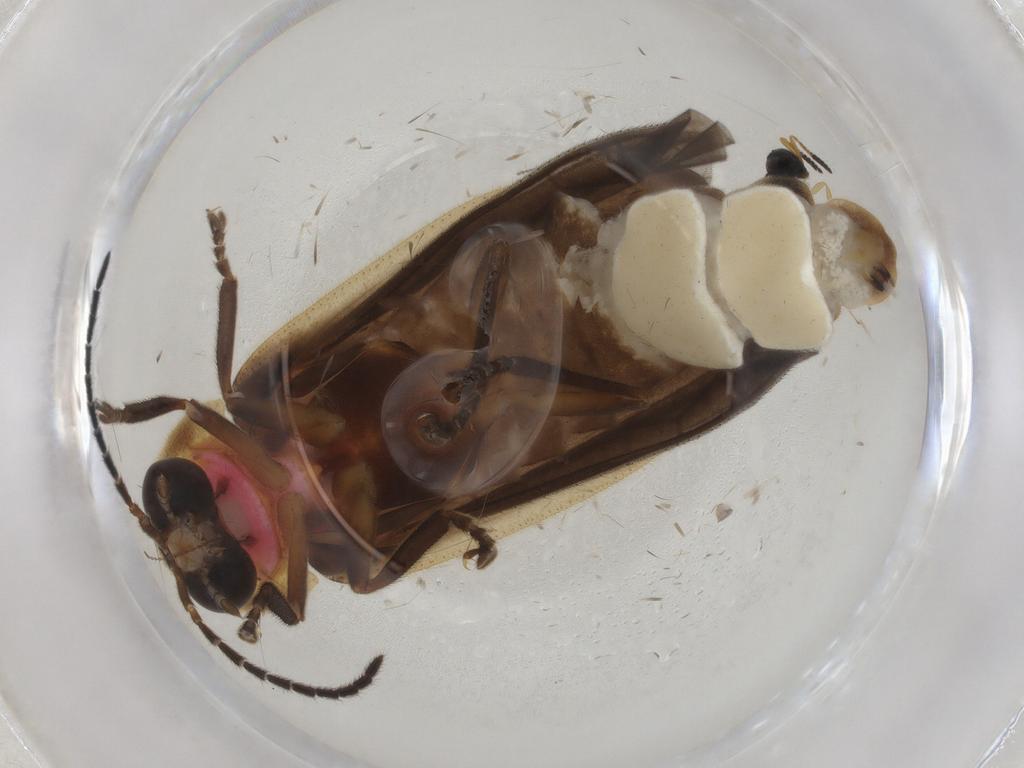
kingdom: Animalia
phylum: Arthropoda
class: Insecta
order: Coleoptera
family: Lampyridae
